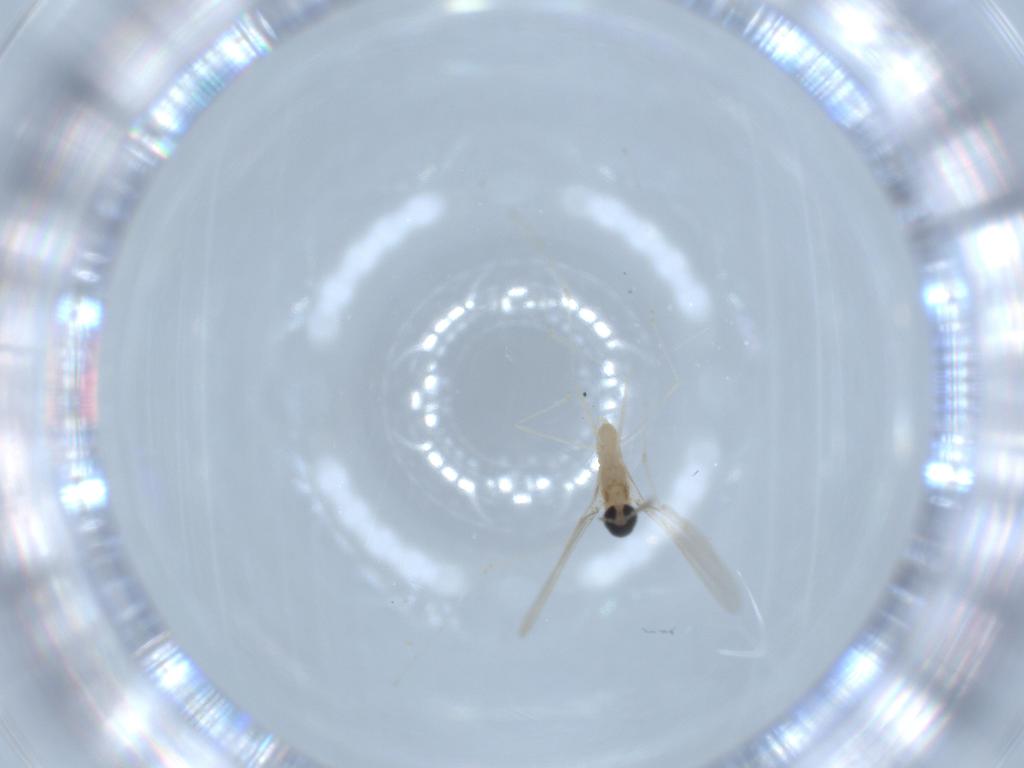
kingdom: Animalia
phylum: Arthropoda
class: Insecta
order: Diptera
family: Cecidomyiidae
